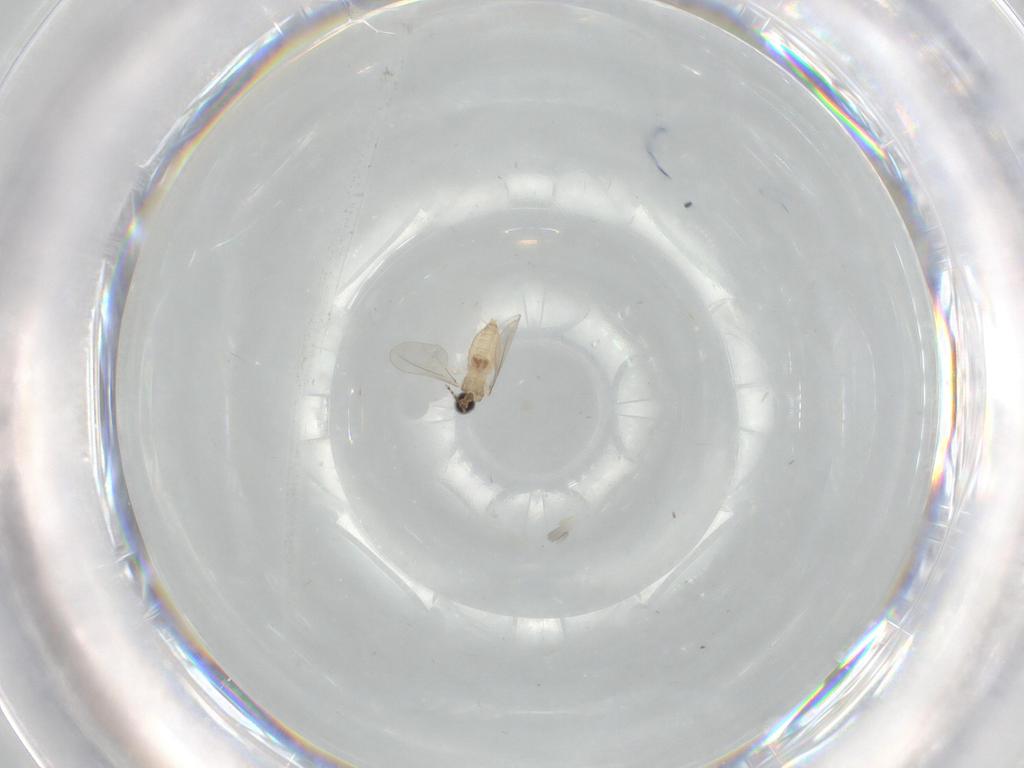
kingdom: Animalia
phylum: Arthropoda
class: Insecta
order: Diptera
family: Cecidomyiidae
